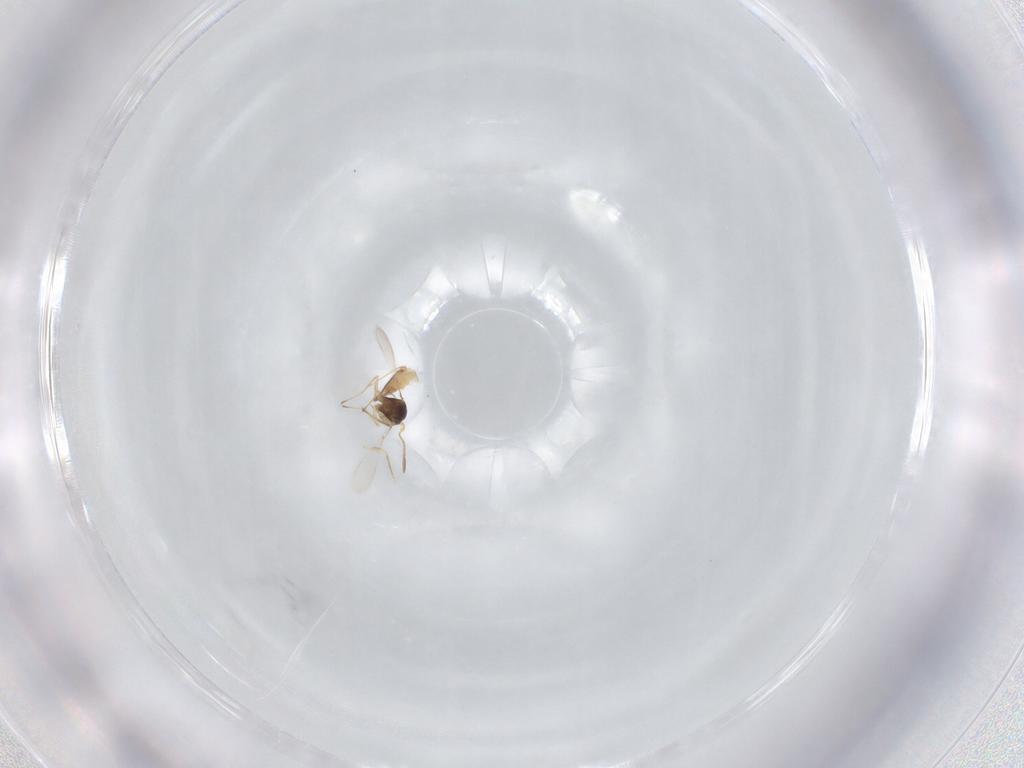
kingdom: Animalia
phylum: Arthropoda
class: Insecta
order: Hymenoptera
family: Mymaridae
